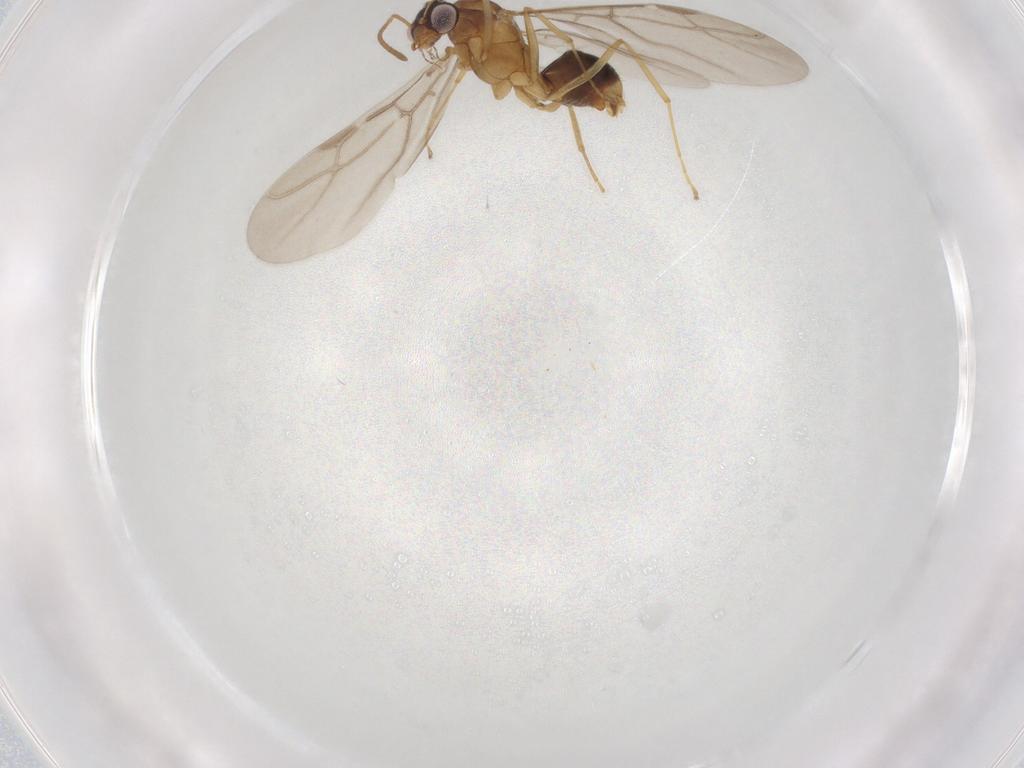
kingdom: Animalia
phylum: Arthropoda
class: Insecta
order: Hymenoptera
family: Formicidae
